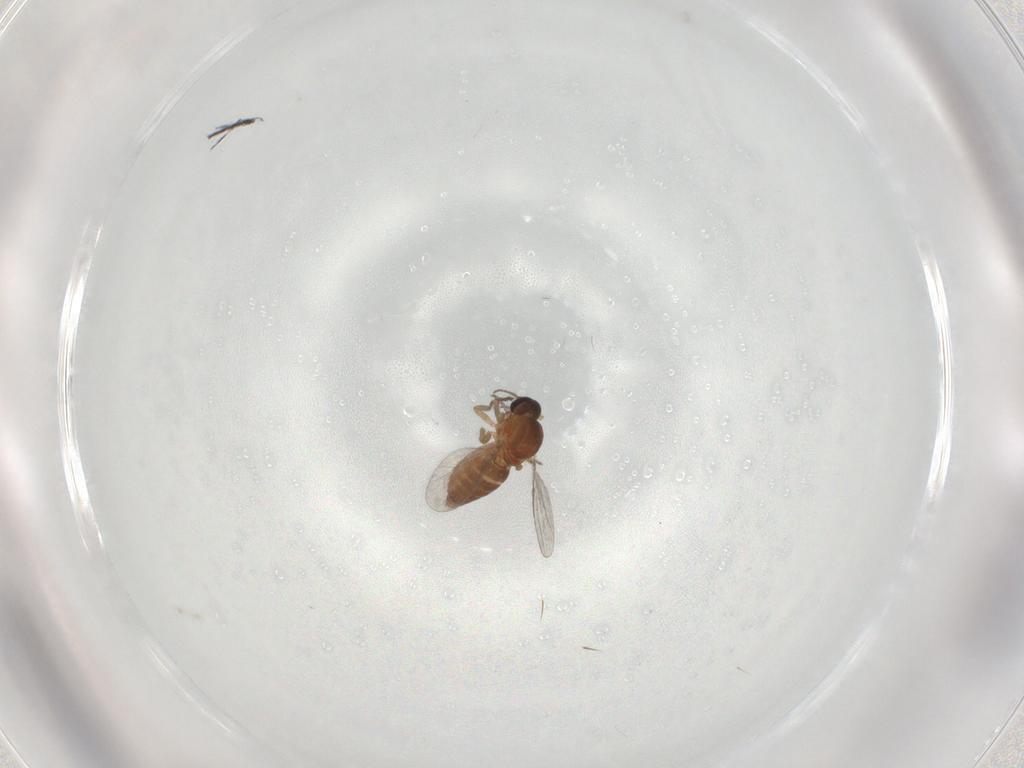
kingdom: Animalia
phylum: Arthropoda
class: Insecta
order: Diptera
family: Ceratopogonidae
